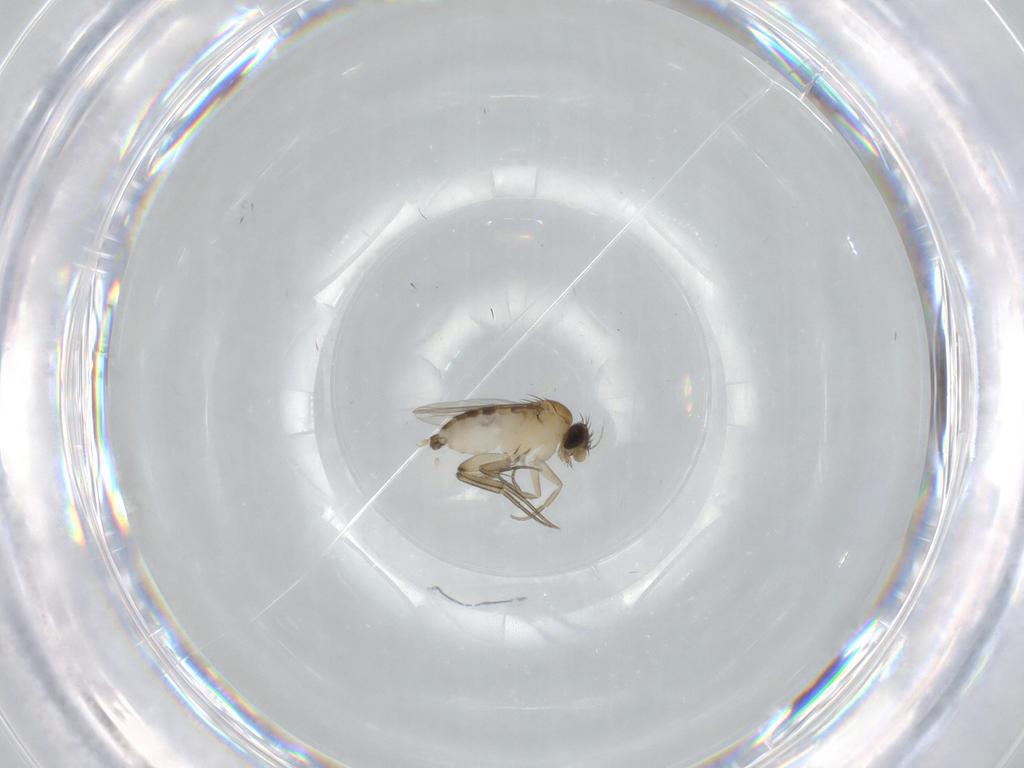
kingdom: Animalia
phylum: Arthropoda
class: Insecta
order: Diptera
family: Phoridae
